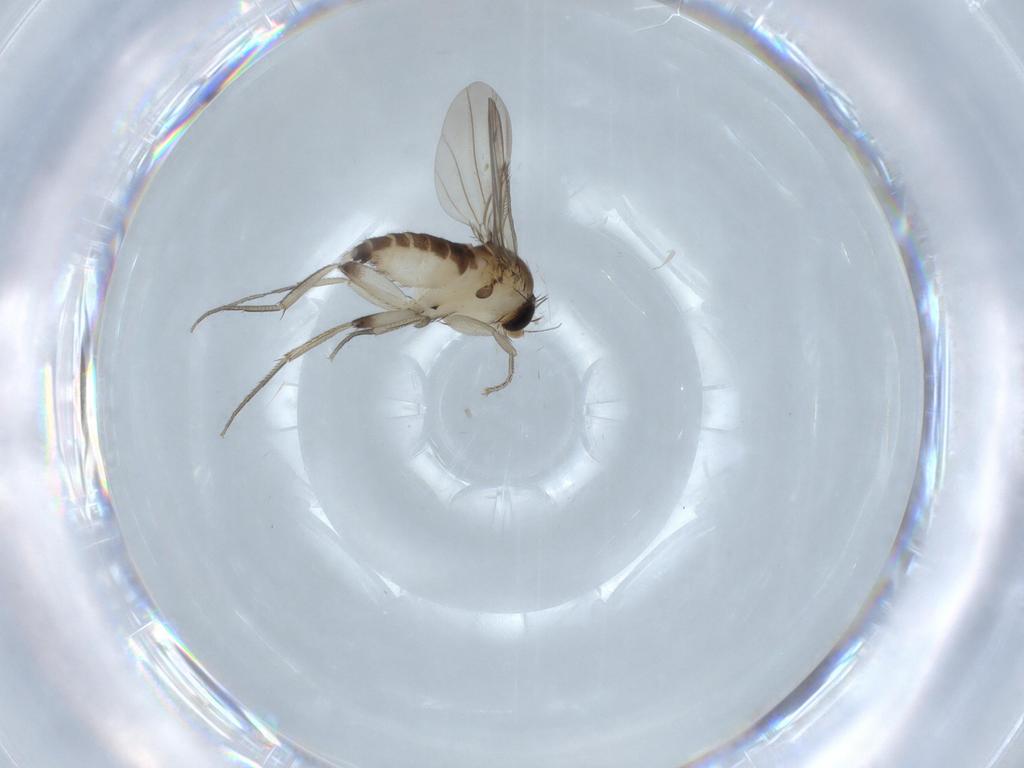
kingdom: Animalia
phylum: Arthropoda
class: Insecta
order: Diptera
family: Phoridae
